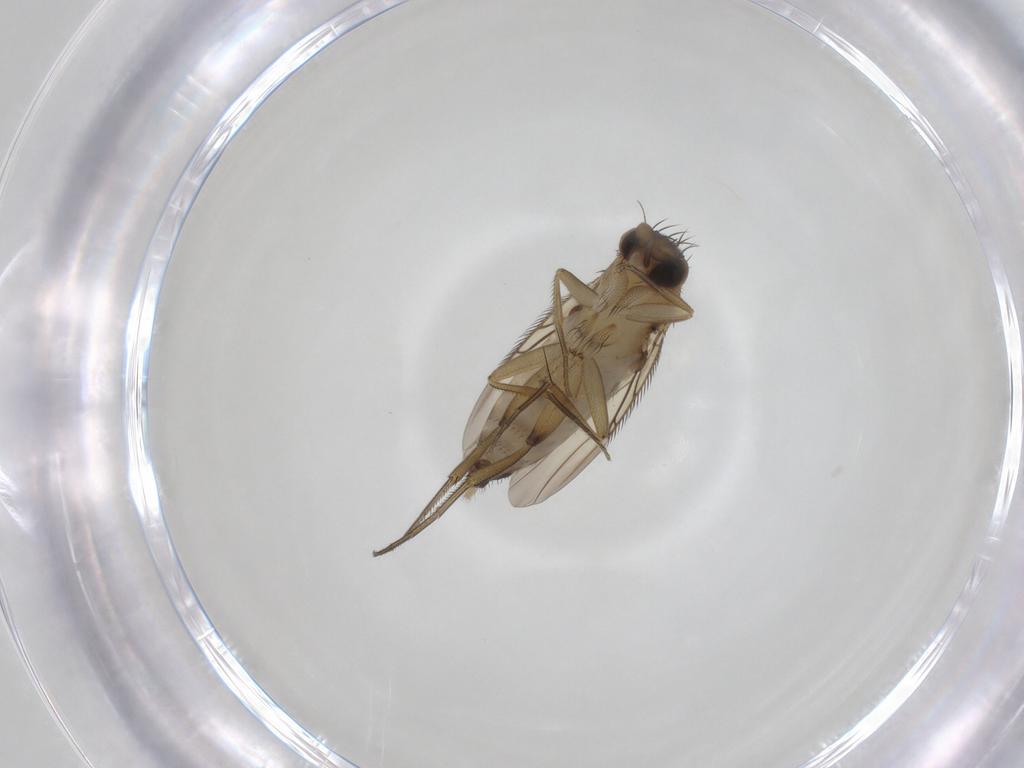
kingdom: Animalia
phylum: Arthropoda
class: Insecta
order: Diptera
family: Phoridae
